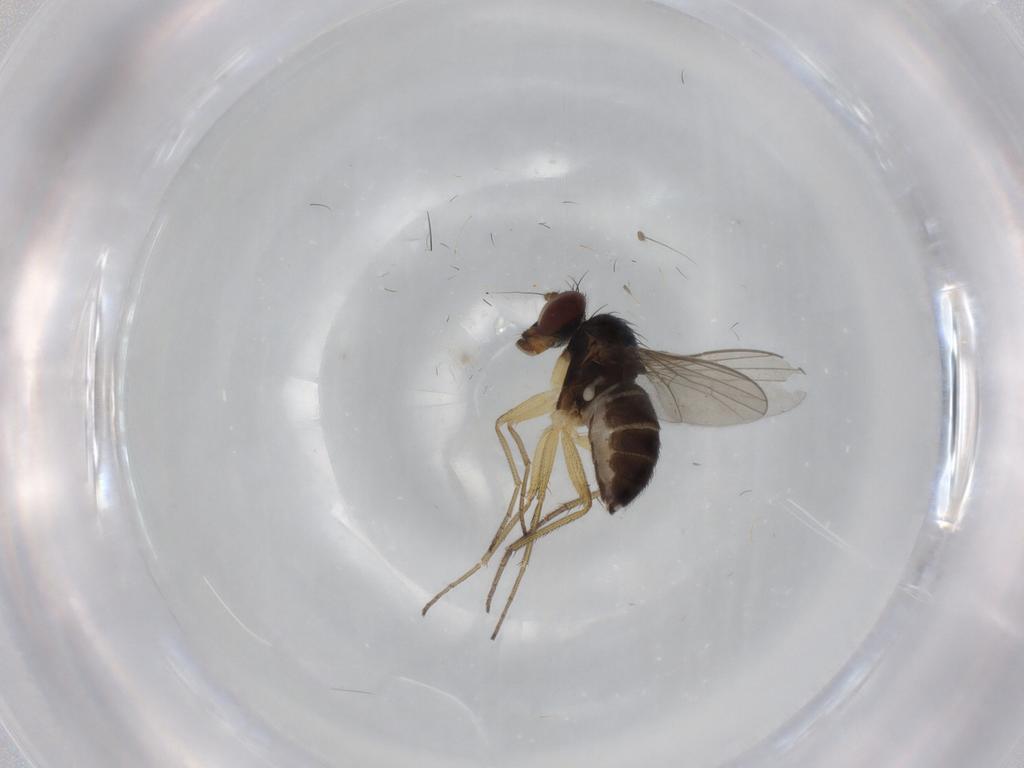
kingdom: Animalia
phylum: Arthropoda
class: Insecta
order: Diptera
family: Dolichopodidae
